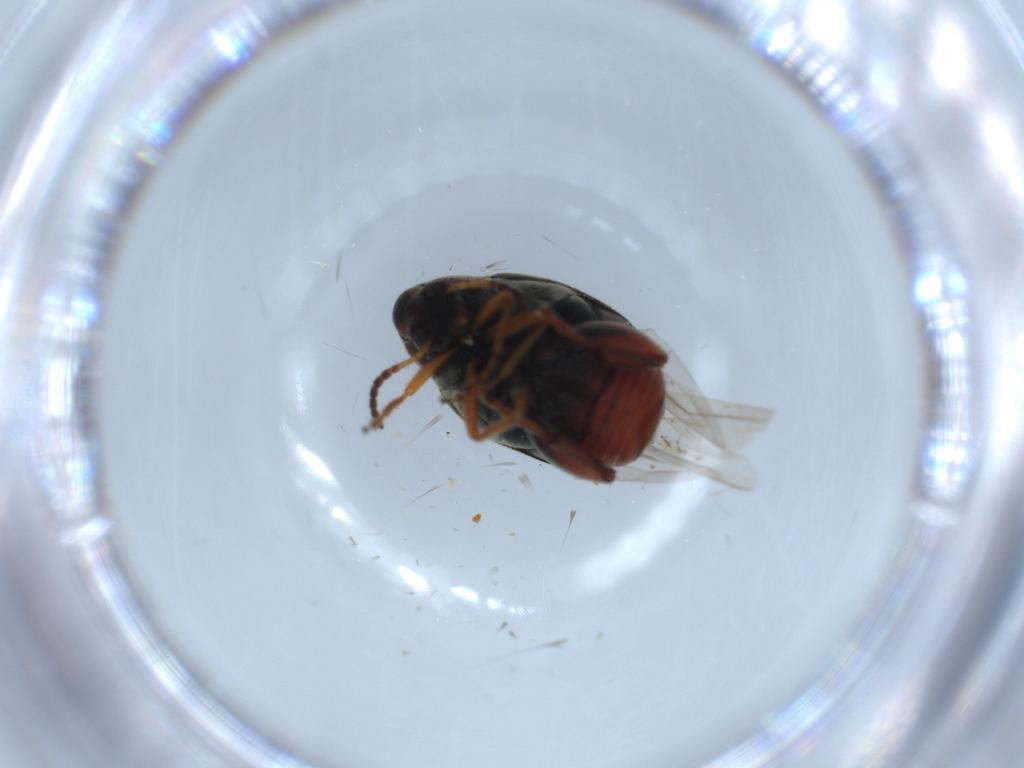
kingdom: Animalia
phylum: Arthropoda
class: Insecta
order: Coleoptera
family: Chrysomelidae
